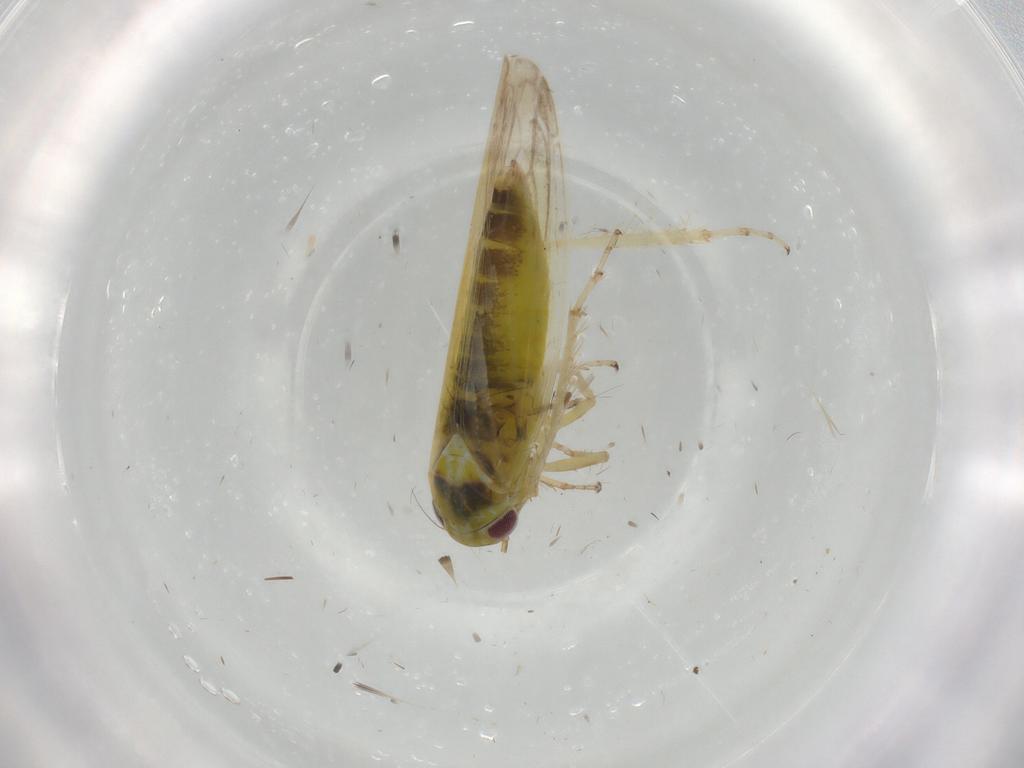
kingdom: Animalia
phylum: Arthropoda
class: Insecta
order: Hemiptera
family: Cicadellidae
